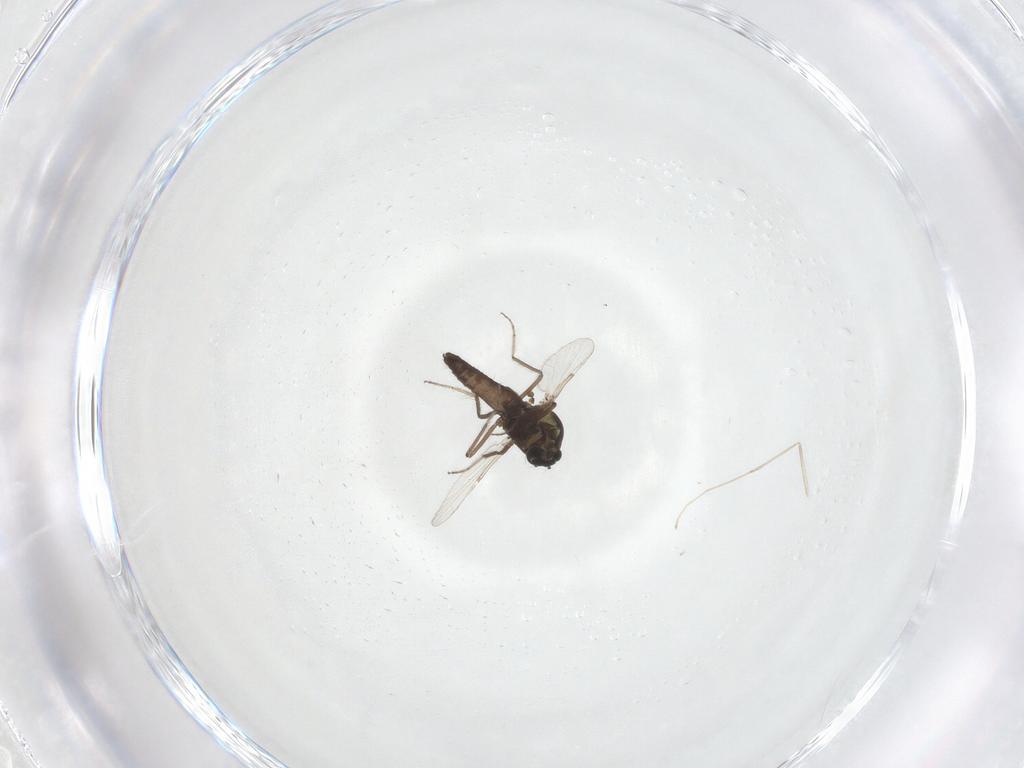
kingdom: Animalia
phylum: Arthropoda
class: Insecta
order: Diptera
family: Ceratopogonidae
